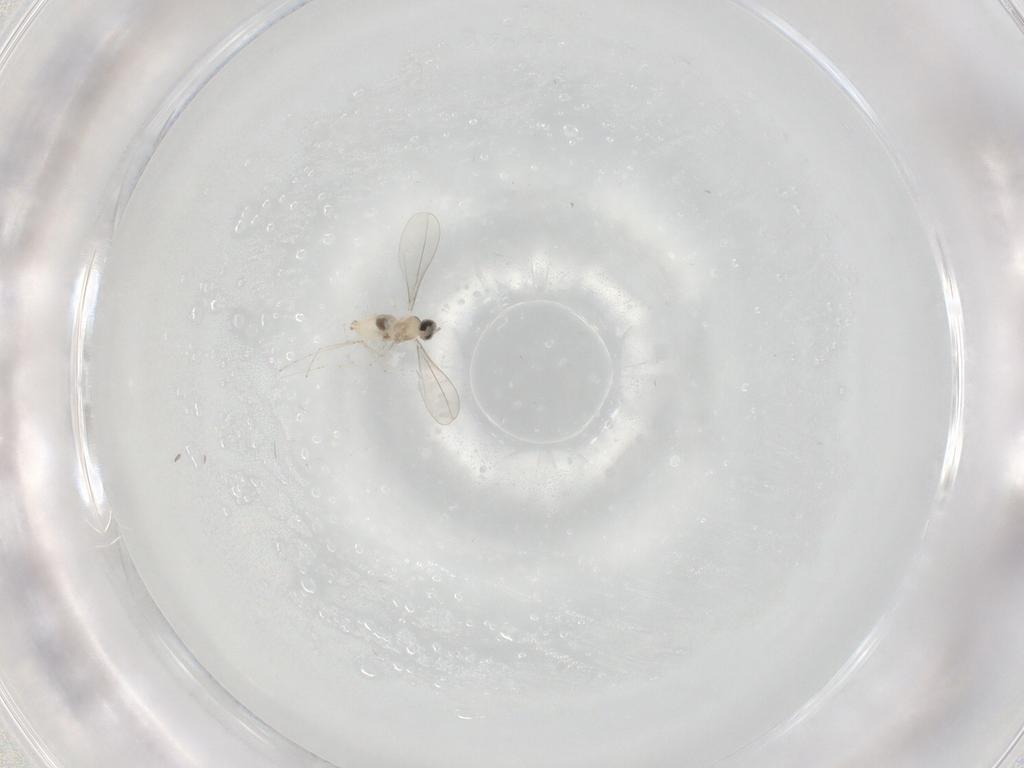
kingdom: Animalia
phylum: Arthropoda
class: Insecta
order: Diptera
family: Cecidomyiidae
